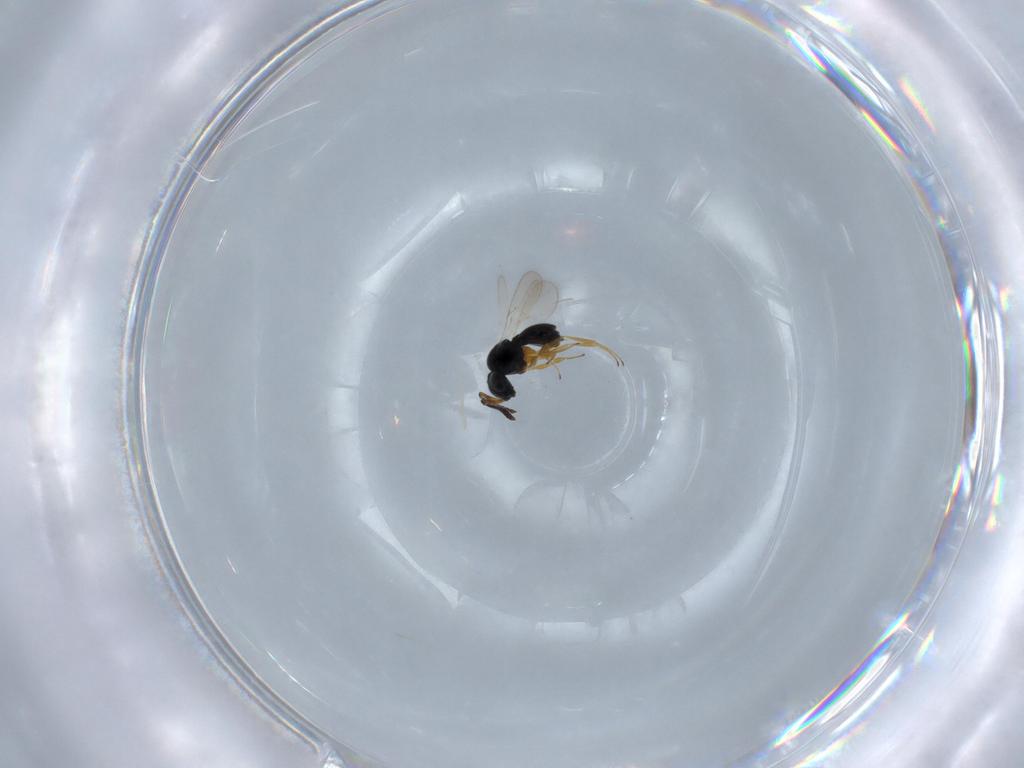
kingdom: Animalia
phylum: Arthropoda
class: Insecta
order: Hymenoptera
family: Scelionidae
